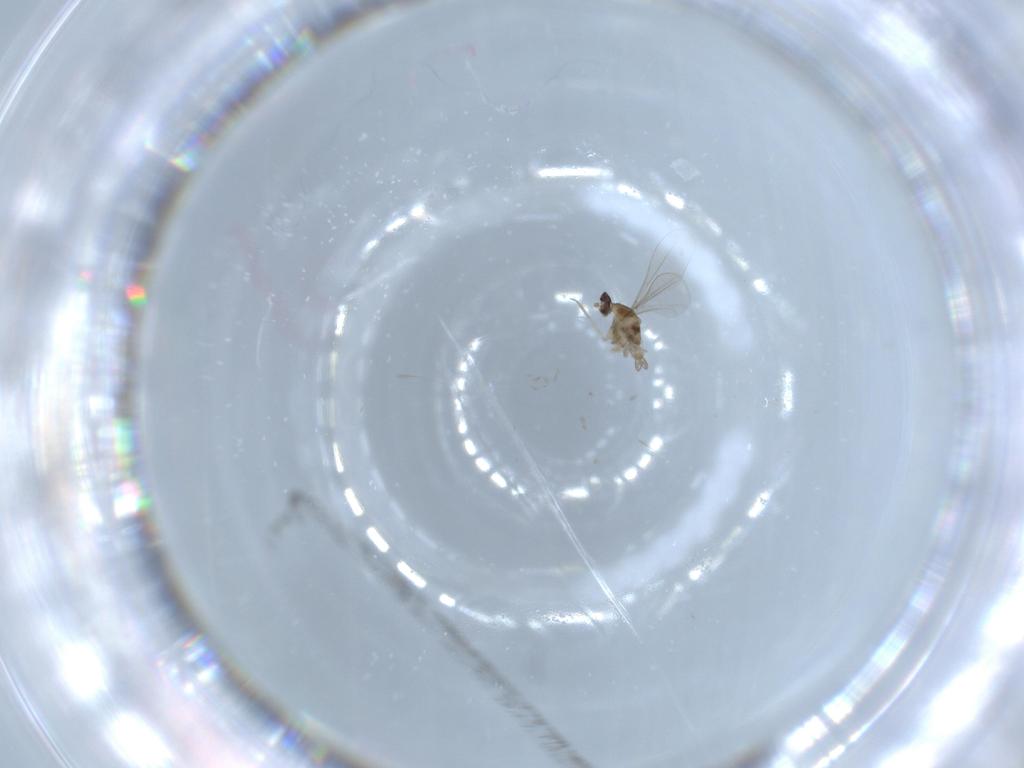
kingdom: Animalia
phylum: Arthropoda
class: Insecta
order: Diptera
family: Cecidomyiidae
